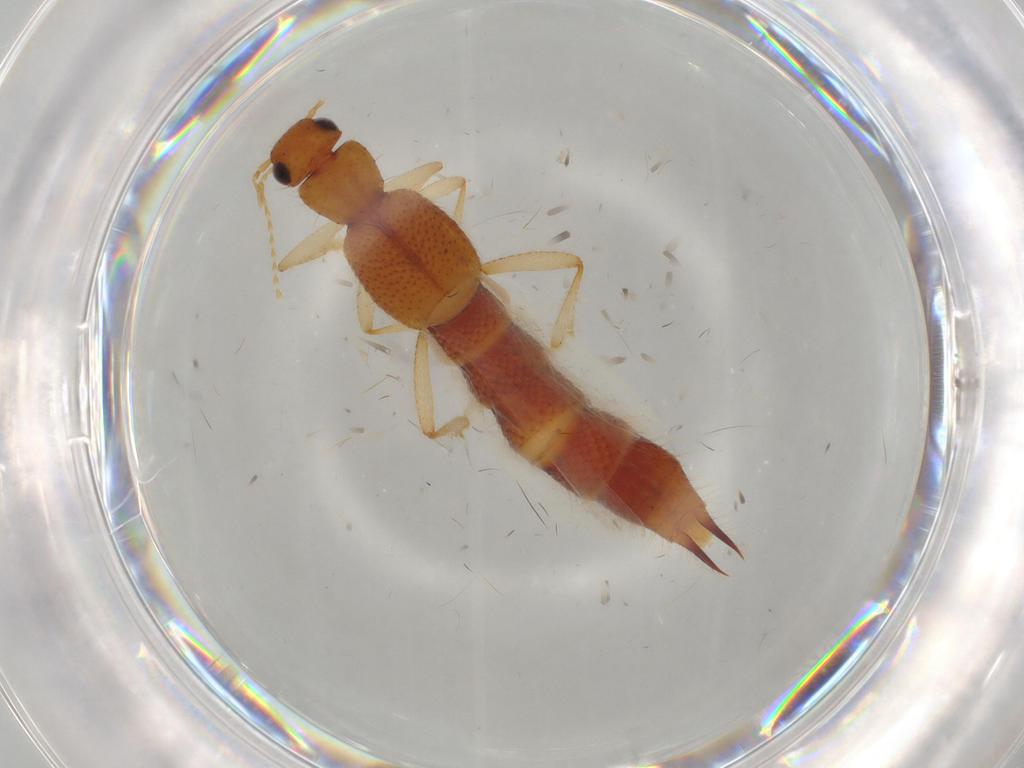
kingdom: Animalia
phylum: Arthropoda
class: Insecta
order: Coleoptera
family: Staphylinidae
